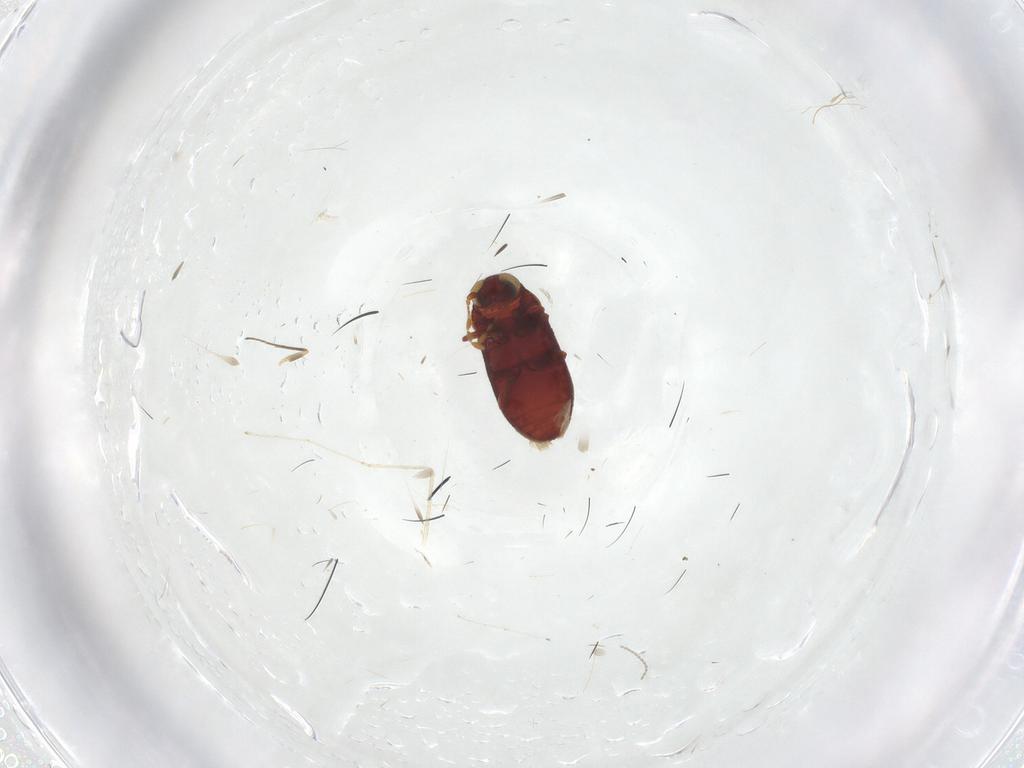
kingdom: Animalia
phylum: Arthropoda
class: Insecta
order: Coleoptera
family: Ptinidae
